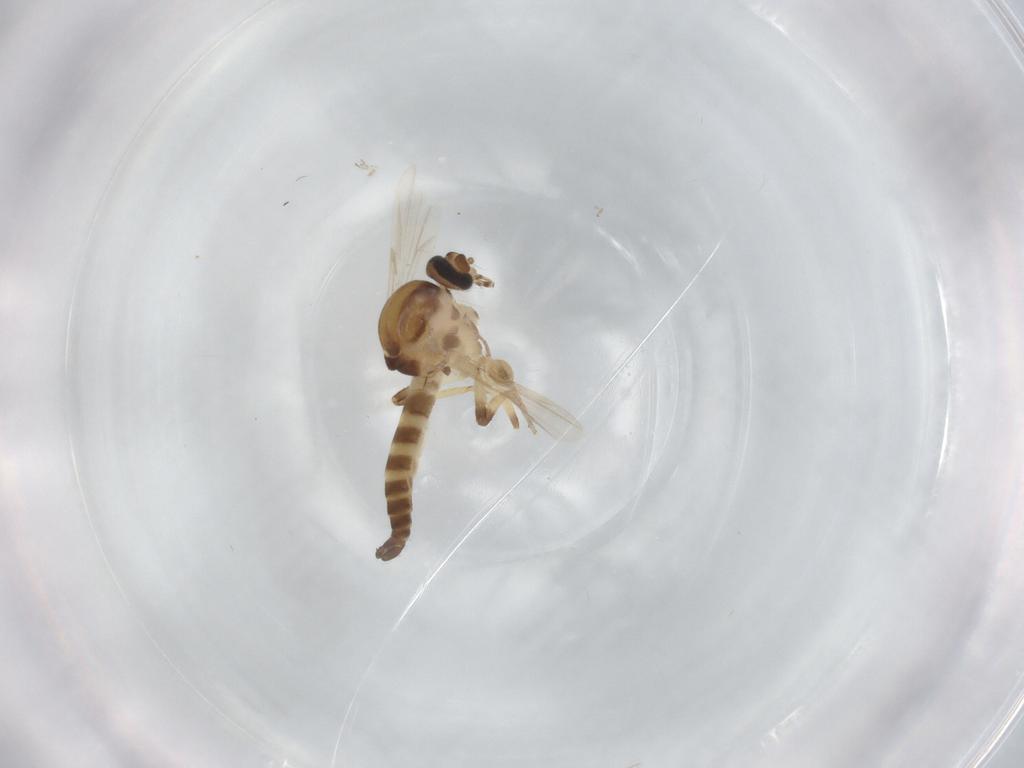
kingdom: Animalia
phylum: Arthropoda
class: Insecta
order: Diptera
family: Ceratopogonidae
